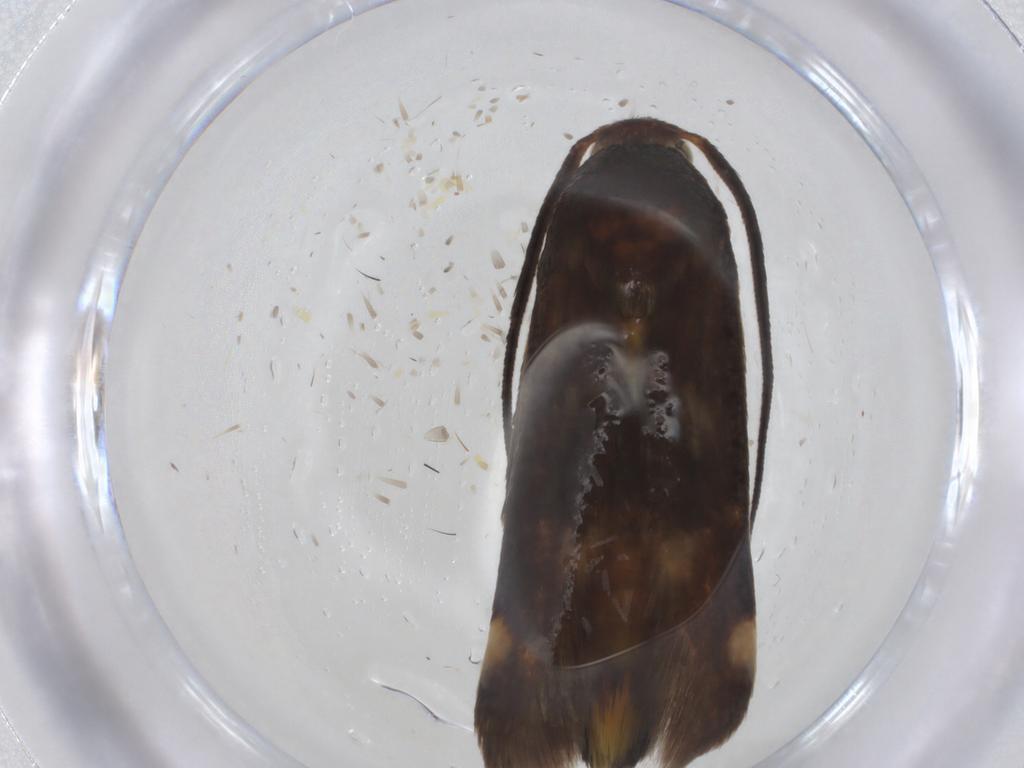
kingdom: Animalia
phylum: Arthropoda
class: Insecta
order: Lepidoptera
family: Scythrididae
